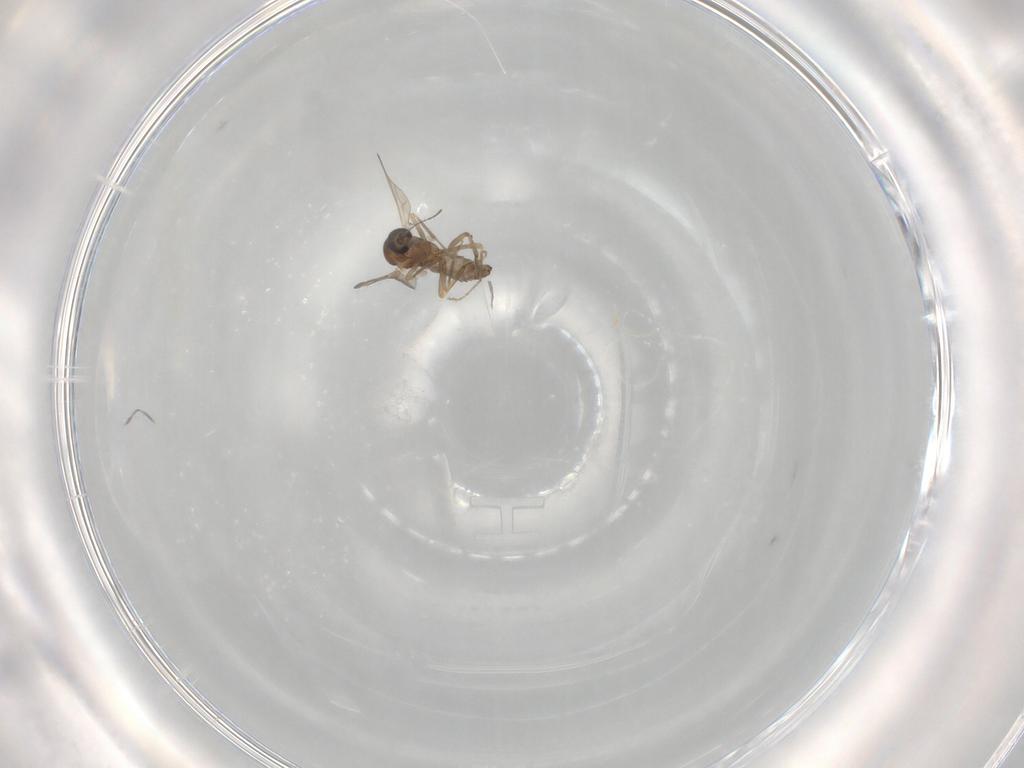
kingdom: Animalia
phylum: Arthropoda
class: Insecta
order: Diptera
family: Ceratopogonidae
